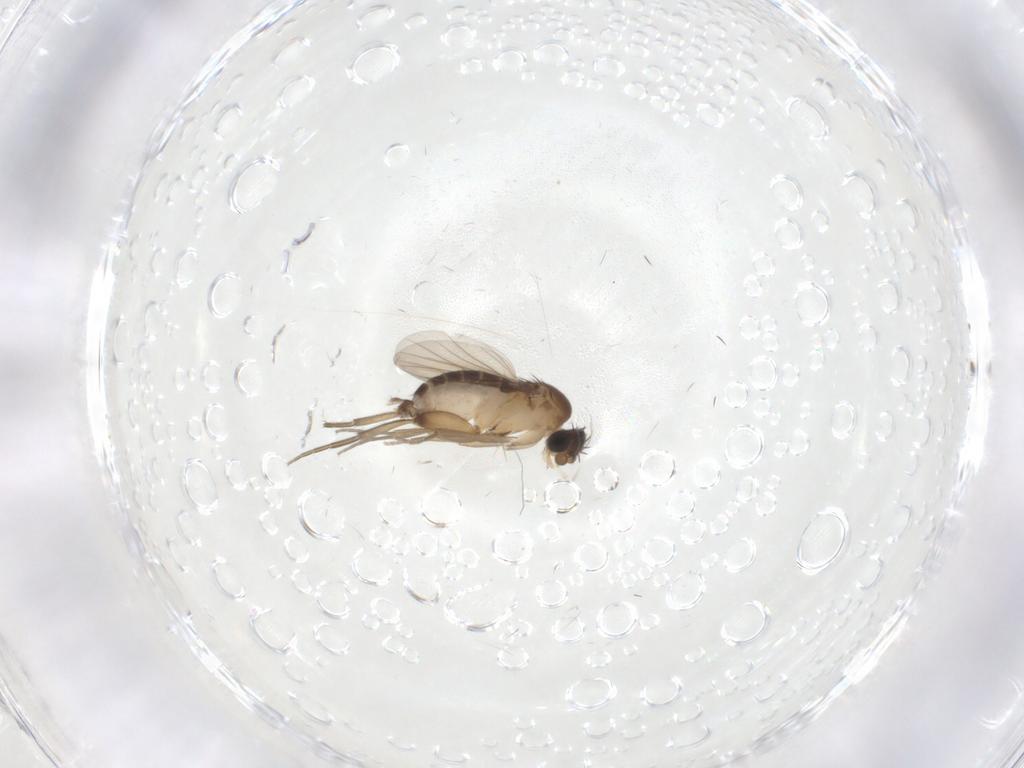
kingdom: Animalia
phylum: Arthropoda
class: Insecta
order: Diptera
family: Phoridae
